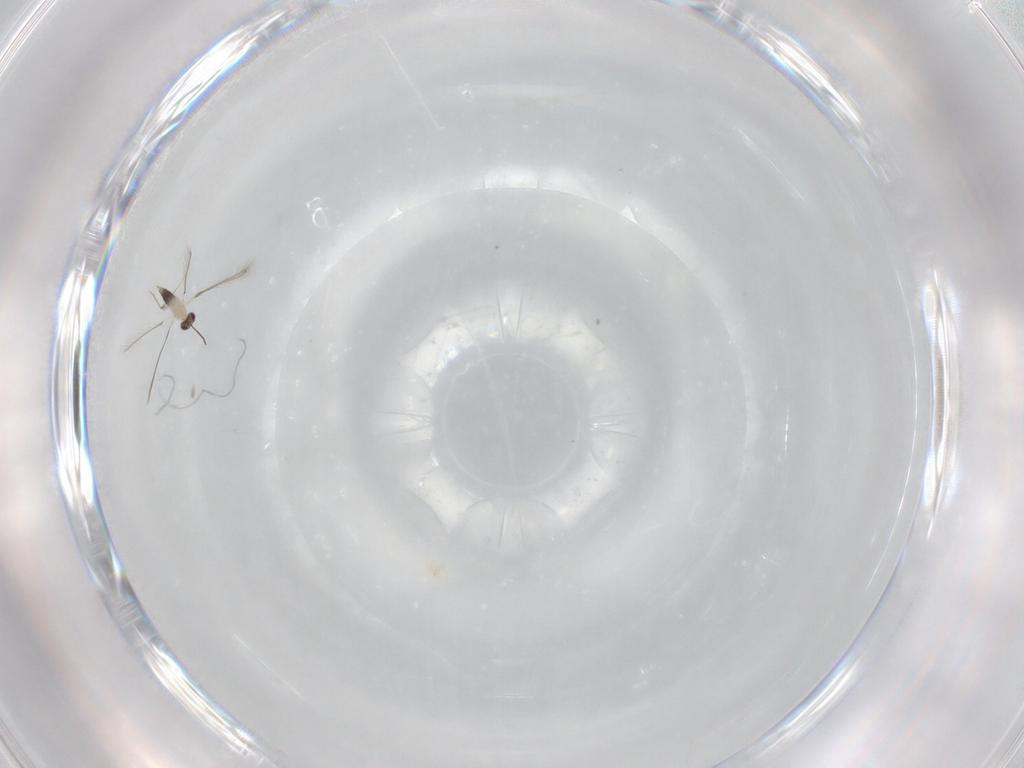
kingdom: Animalia
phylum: Arthropoda
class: Insecta
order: Hymenoptera
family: Mymaridae
